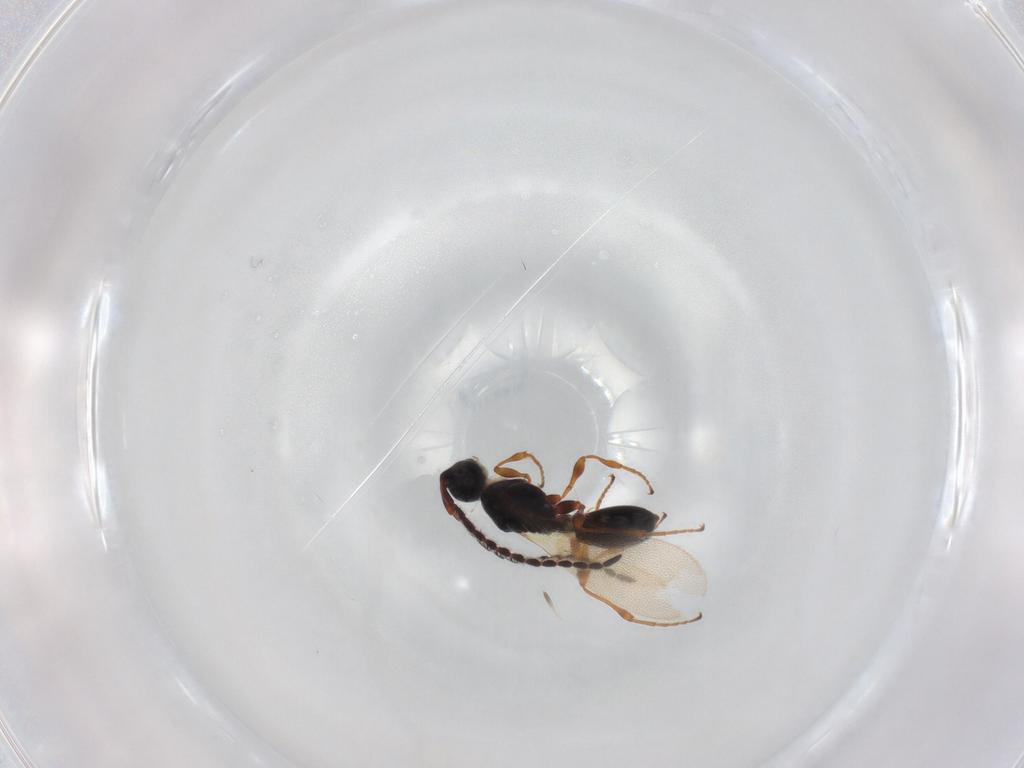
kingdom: Animalia
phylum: Arthropoda
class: Insecta
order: Hymenoptera
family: Diapriidae
